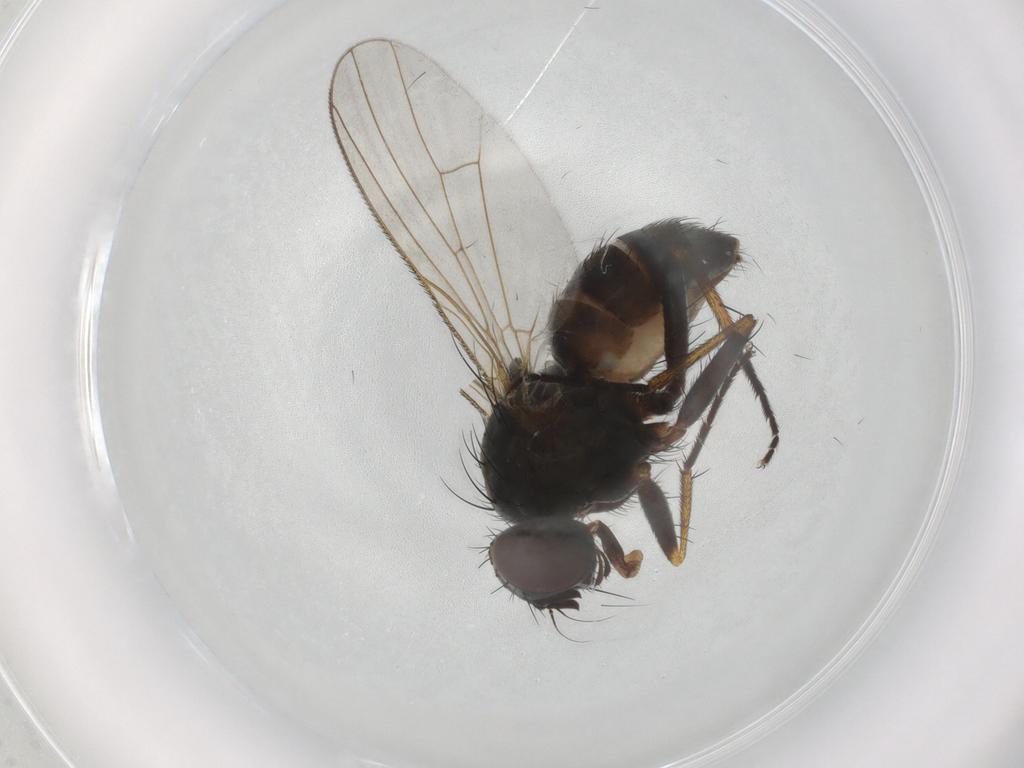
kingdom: Animalia
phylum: Arthropoda
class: Insecta
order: Diptera
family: Muscidae
